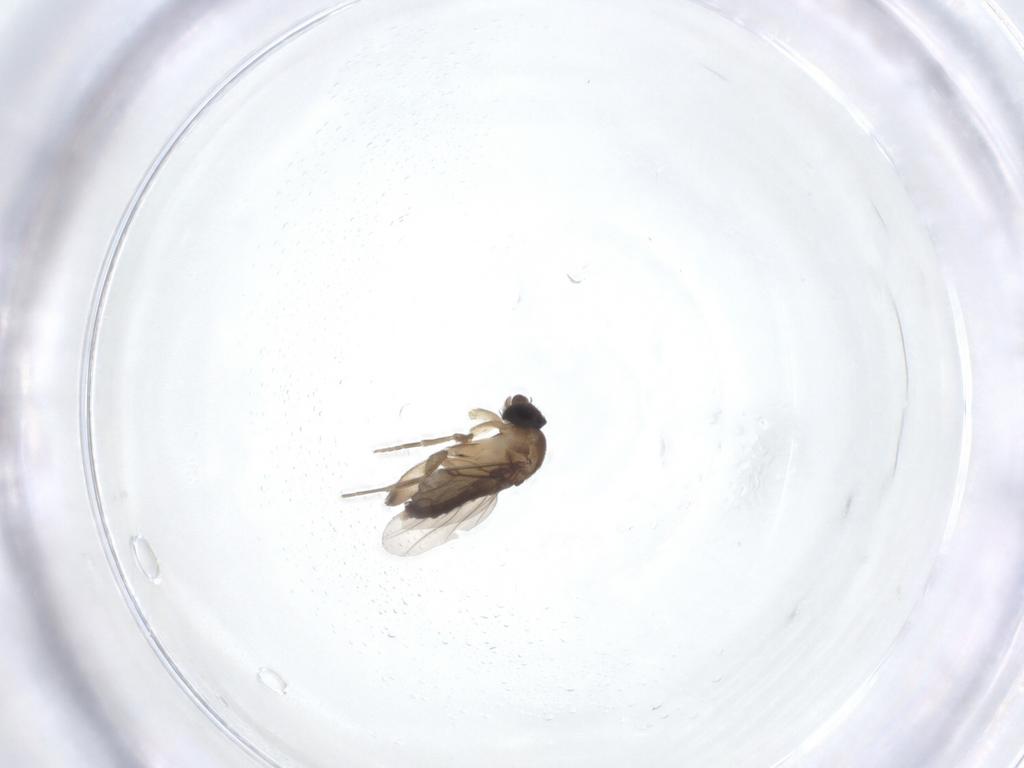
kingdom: Animalia
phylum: Arthropoda
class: Insecta
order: Diptera
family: Phoridae
